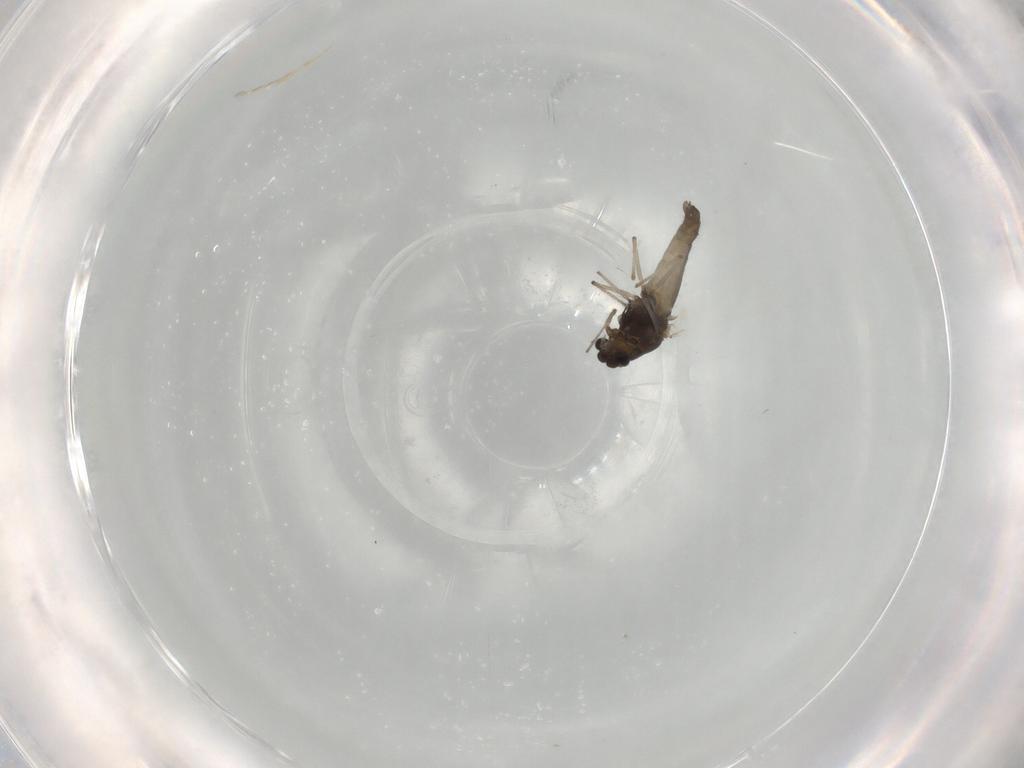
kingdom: Animalia
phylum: Arthropoda
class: Insecta
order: Diptera
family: Chironomidae
